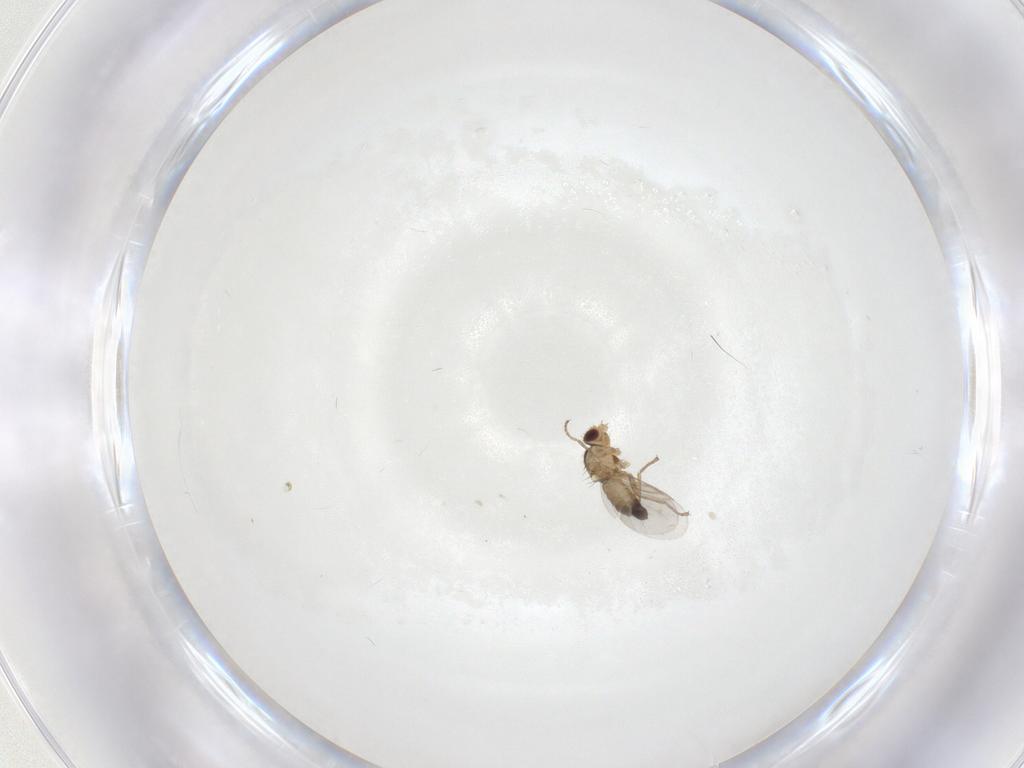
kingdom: Animalia
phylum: Arthropoda
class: Insecta
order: Diptera
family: Cecidomyiidae
